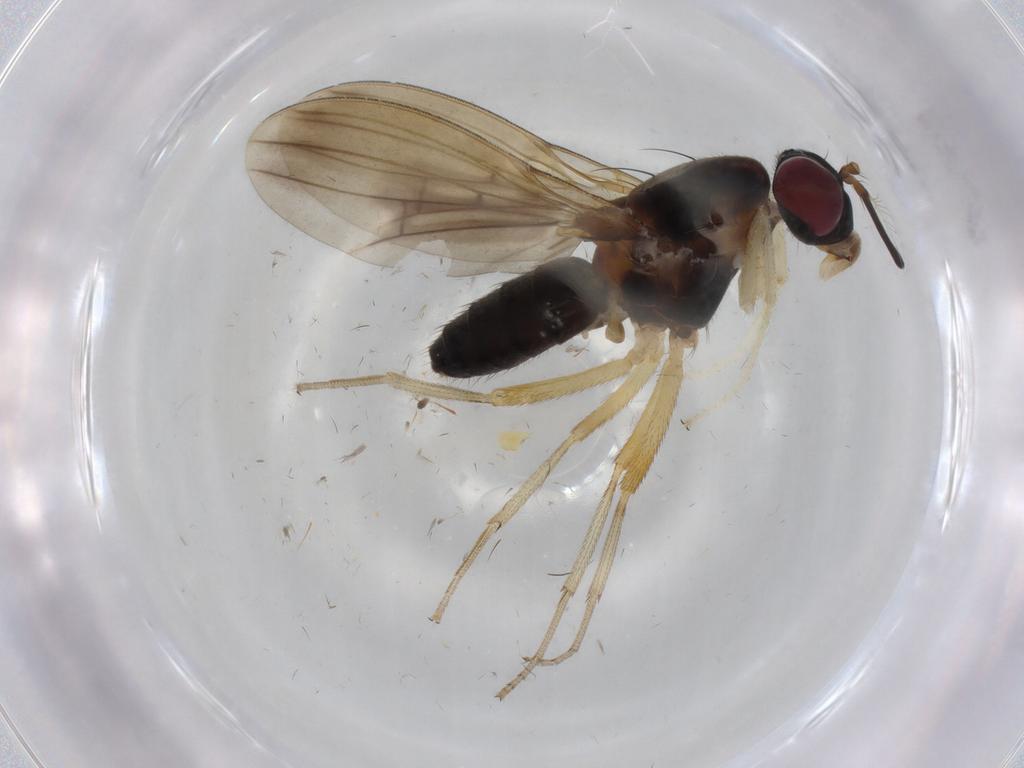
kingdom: Animalia
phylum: Arthropoda
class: Insecta
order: Diptera
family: Lauxaniidae
